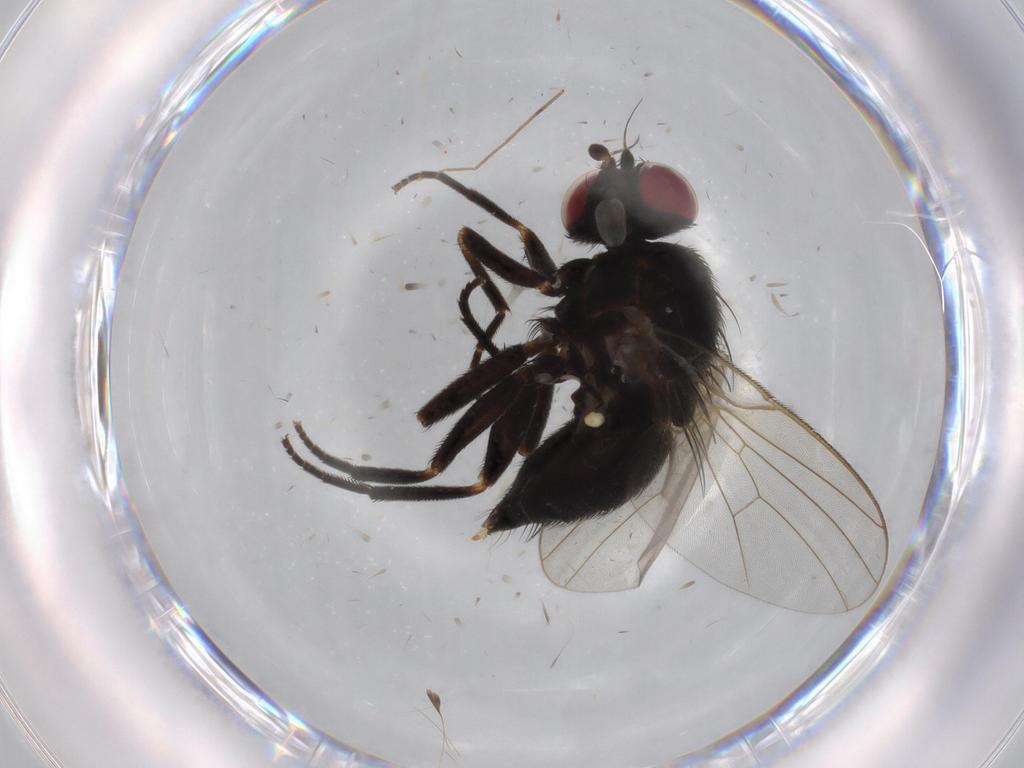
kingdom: Animalia
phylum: Arthropoda
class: Insecta
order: Diptera
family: Agromyzidae
